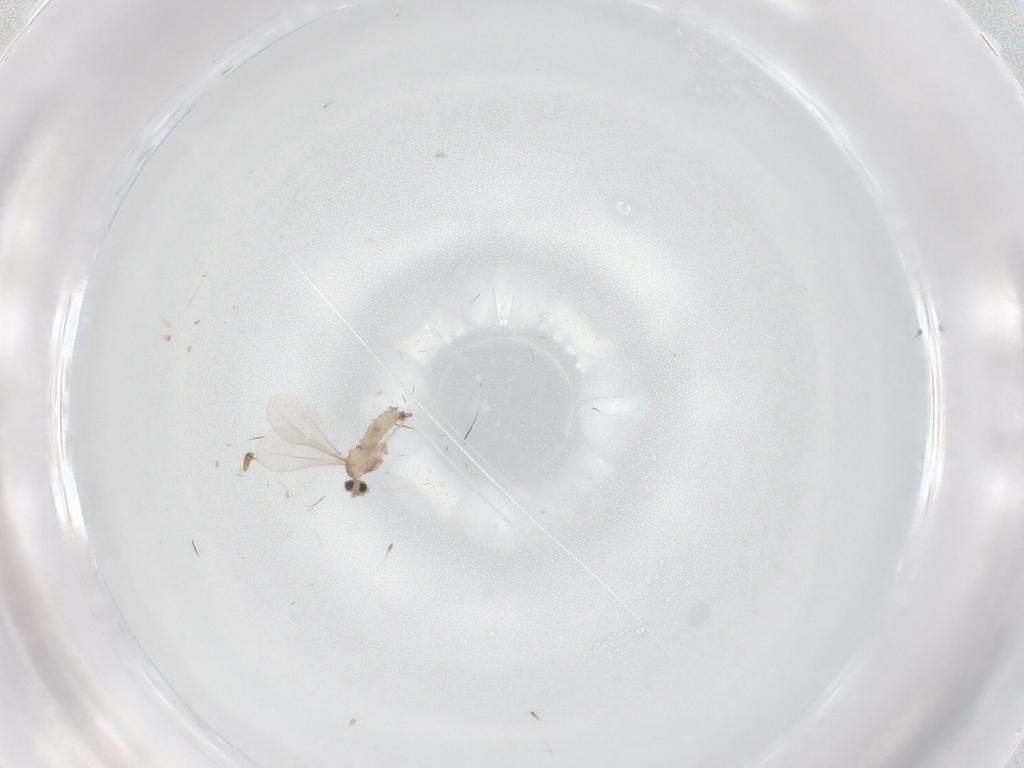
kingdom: Animalia
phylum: Arthropoda
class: Insecta
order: Diptera
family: Cecidomyiidae
